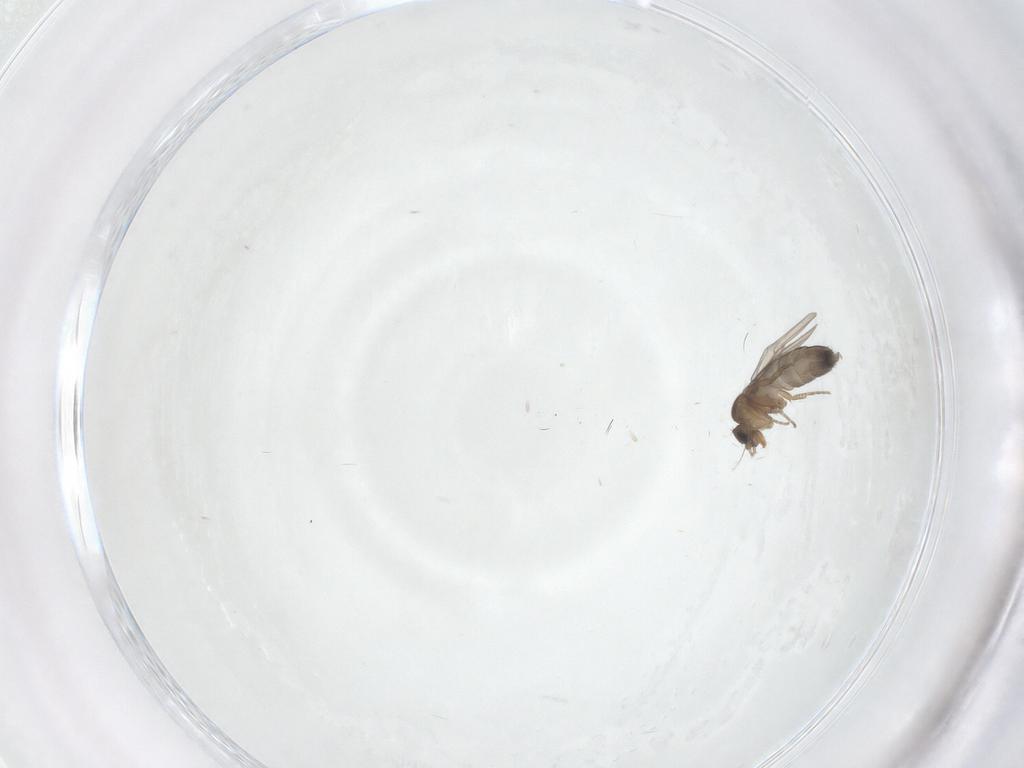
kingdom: Animalia
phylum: Arthropoda
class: Insecta
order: Diptera
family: Phoridae
